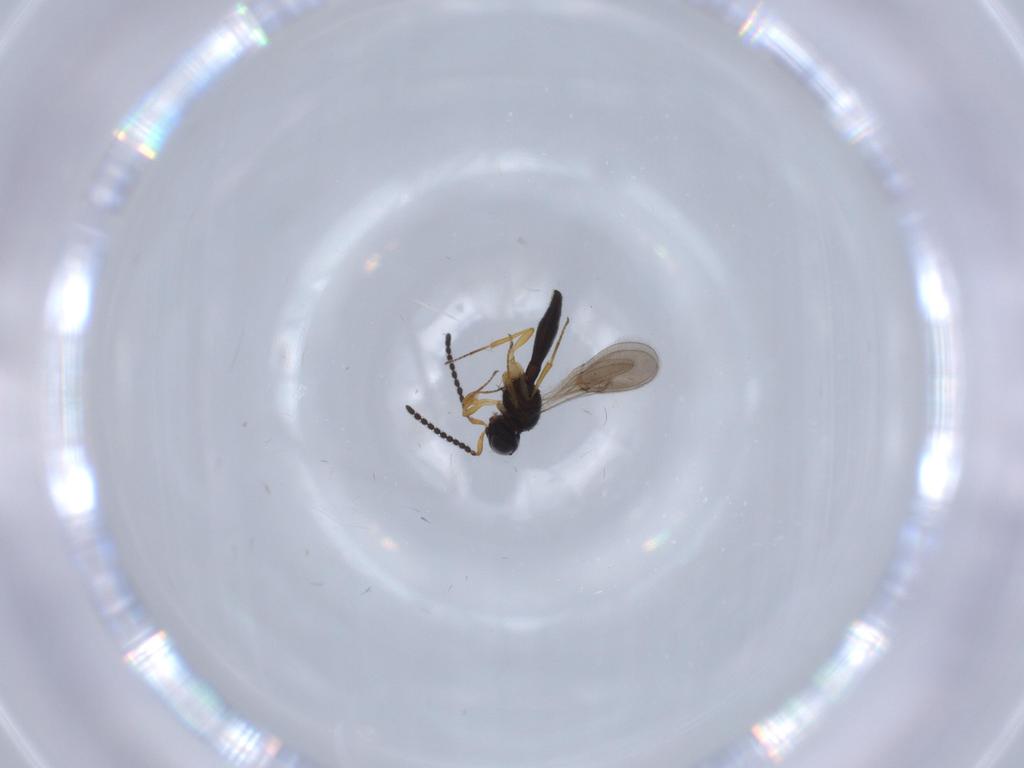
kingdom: Animalia
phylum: Arthropoda
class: Insecta
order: Hymenoptera
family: Scelionidae
